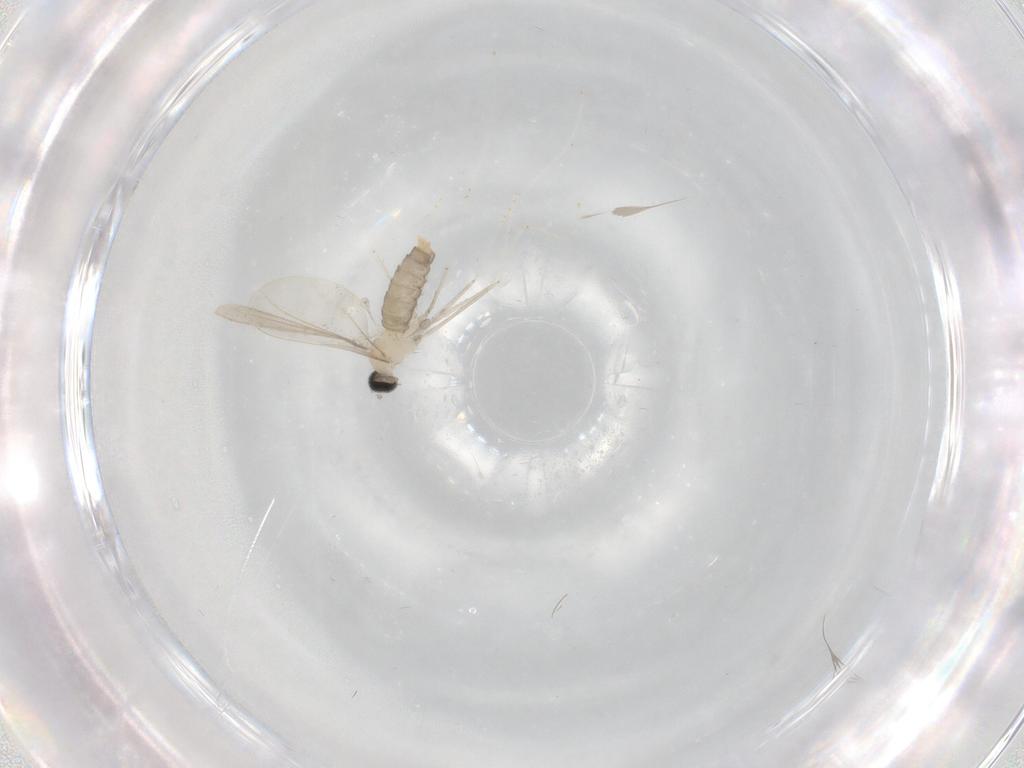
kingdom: Animalia
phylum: Arthropoda
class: Insecta
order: Diptera
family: Cecidomyiidae
